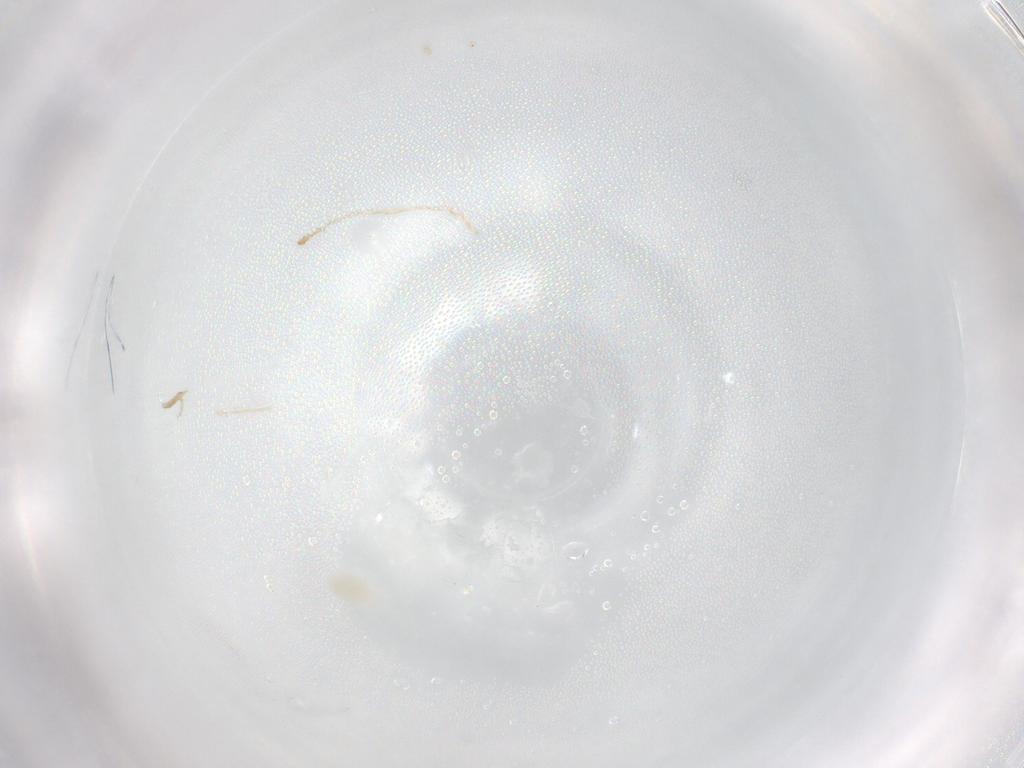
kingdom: Animalia
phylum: Arthropoda
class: Arachnida
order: Mesostigmata
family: Melicharidae
